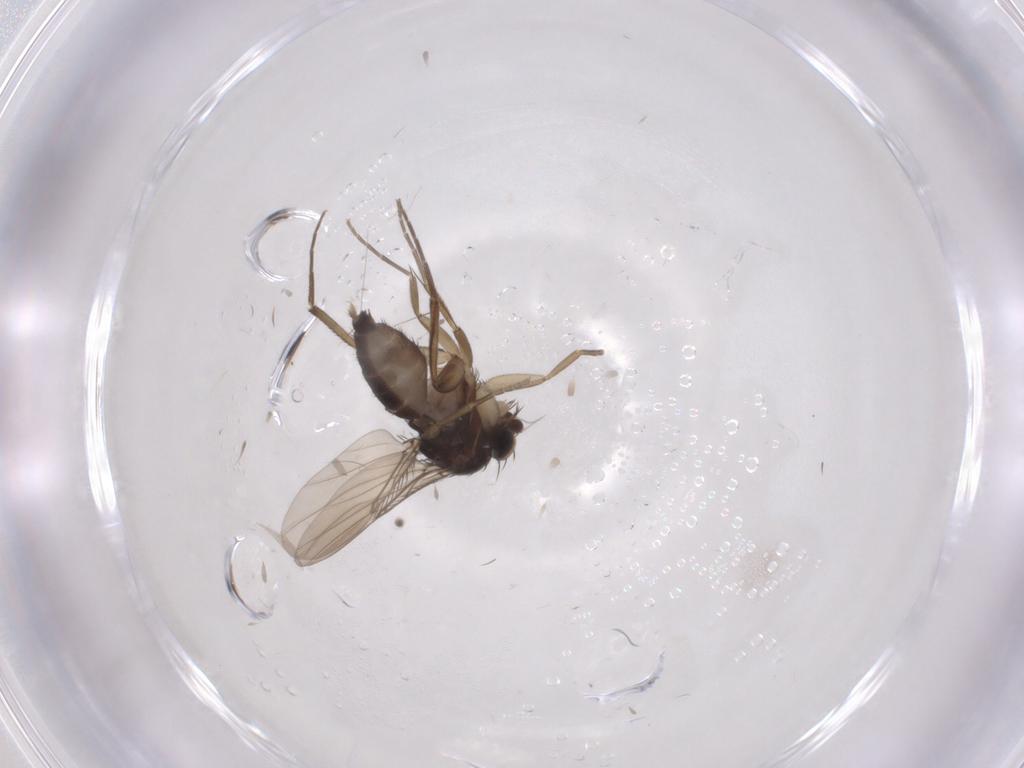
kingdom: Animalia
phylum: Arthropoda
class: Insecta
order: Diptera
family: Phoridae
